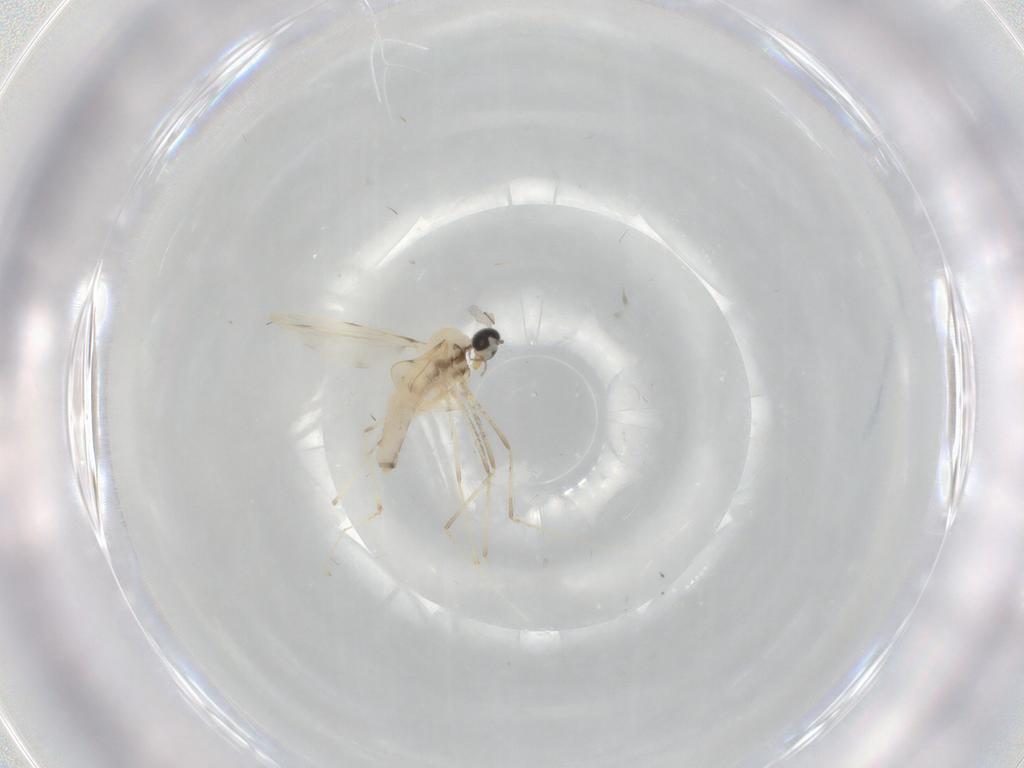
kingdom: Animalia
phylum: Arthropoda
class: Insecta
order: Diptera
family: Cecidomyiidae
